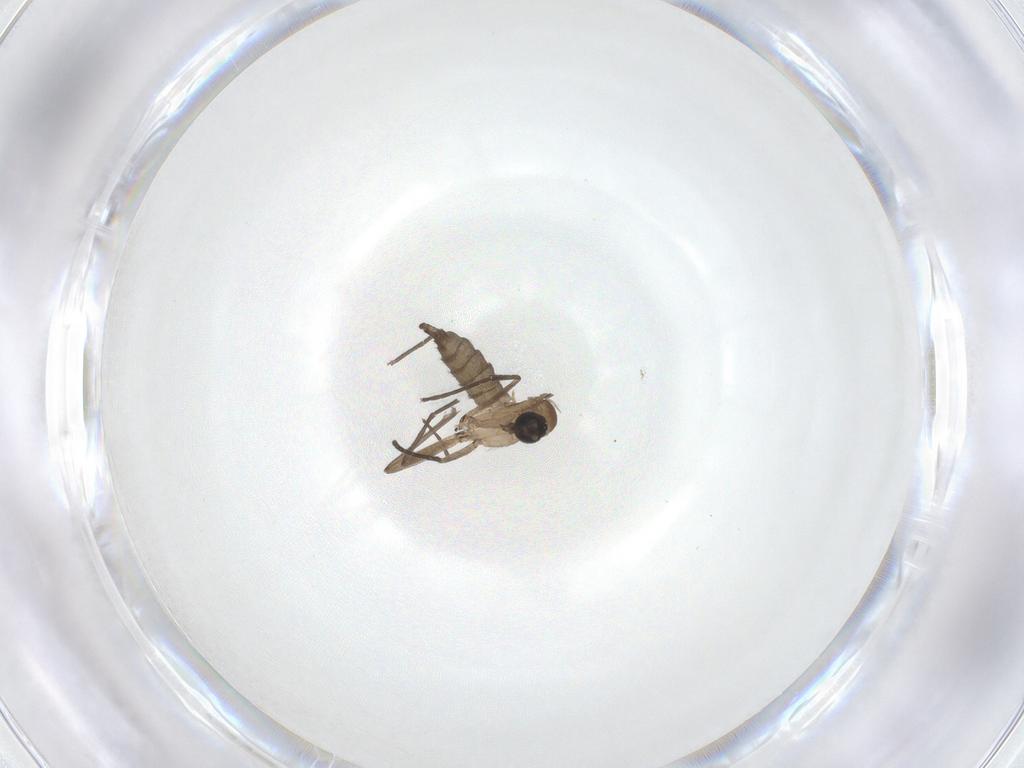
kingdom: Animalia
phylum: Arthropoda
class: Insecta
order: Diptera
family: Sciaridae
